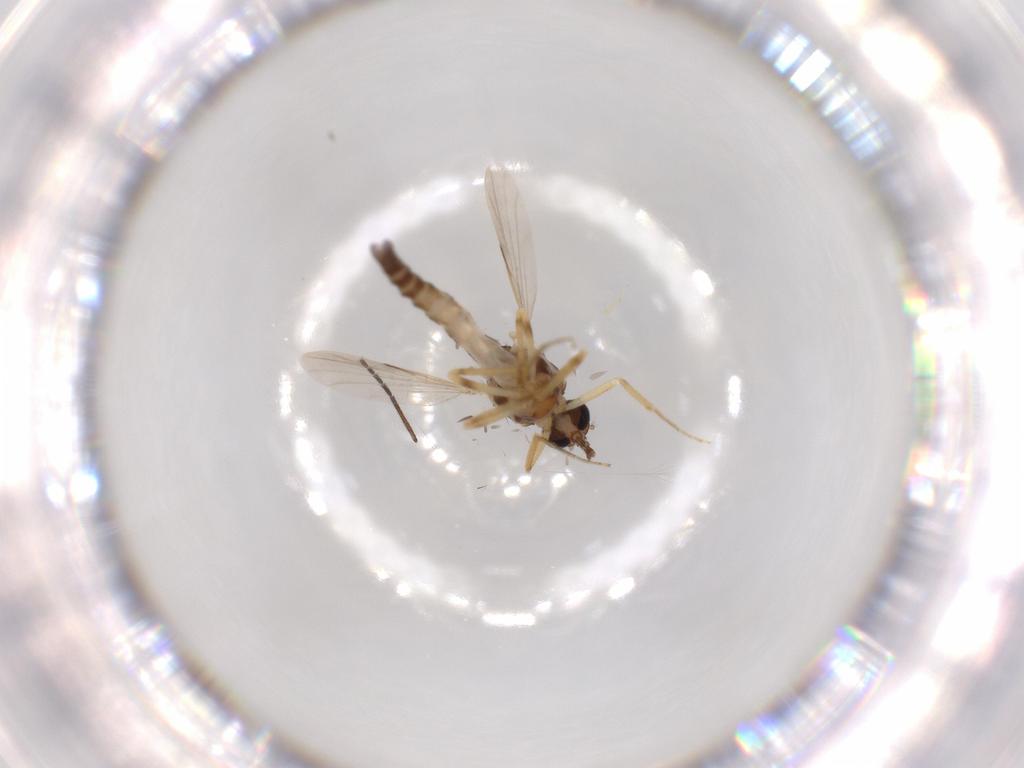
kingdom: Animalia
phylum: Arthropoda
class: Insecta
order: Diptera
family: Ceratopogonidae
